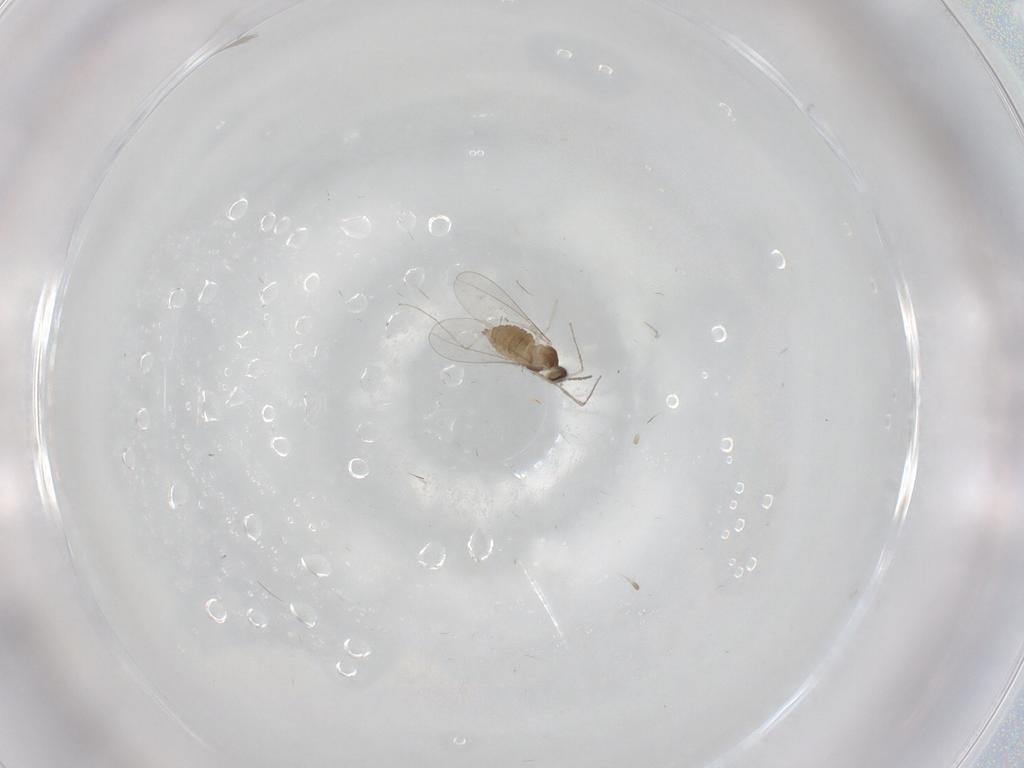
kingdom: Animalia
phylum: Arthropoda
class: Insecta
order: Diptera
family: Cecidomyiidae
